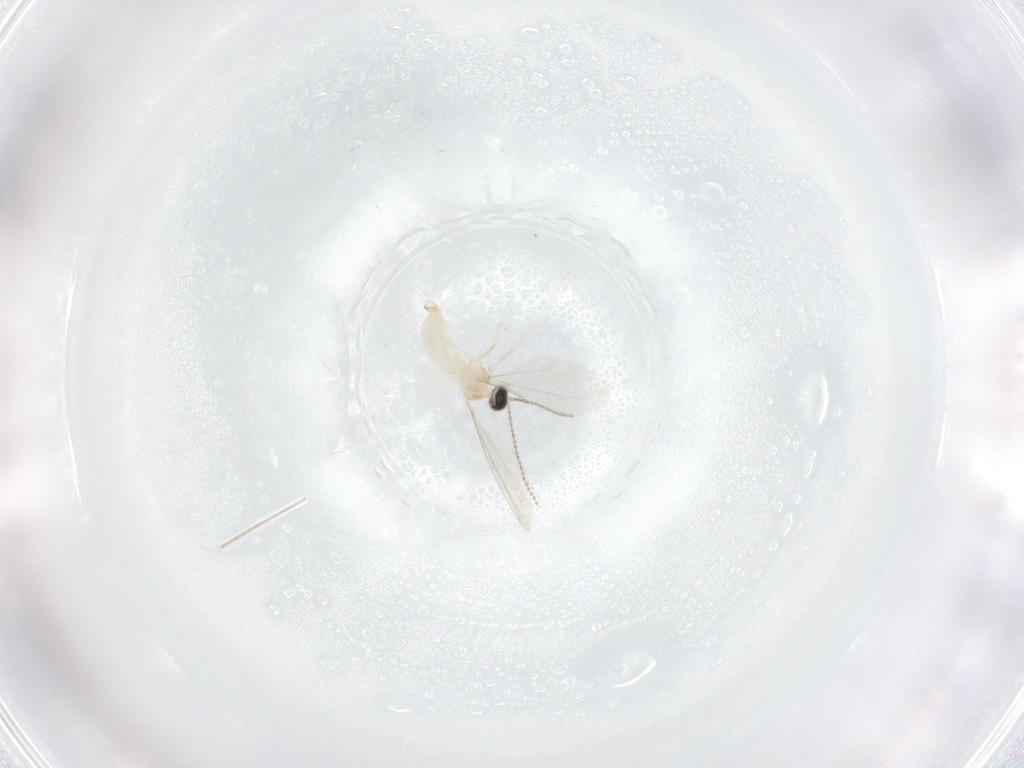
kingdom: Animalia
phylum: Arthropoda
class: Insecta
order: Diptera
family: Cecidomyiidae
